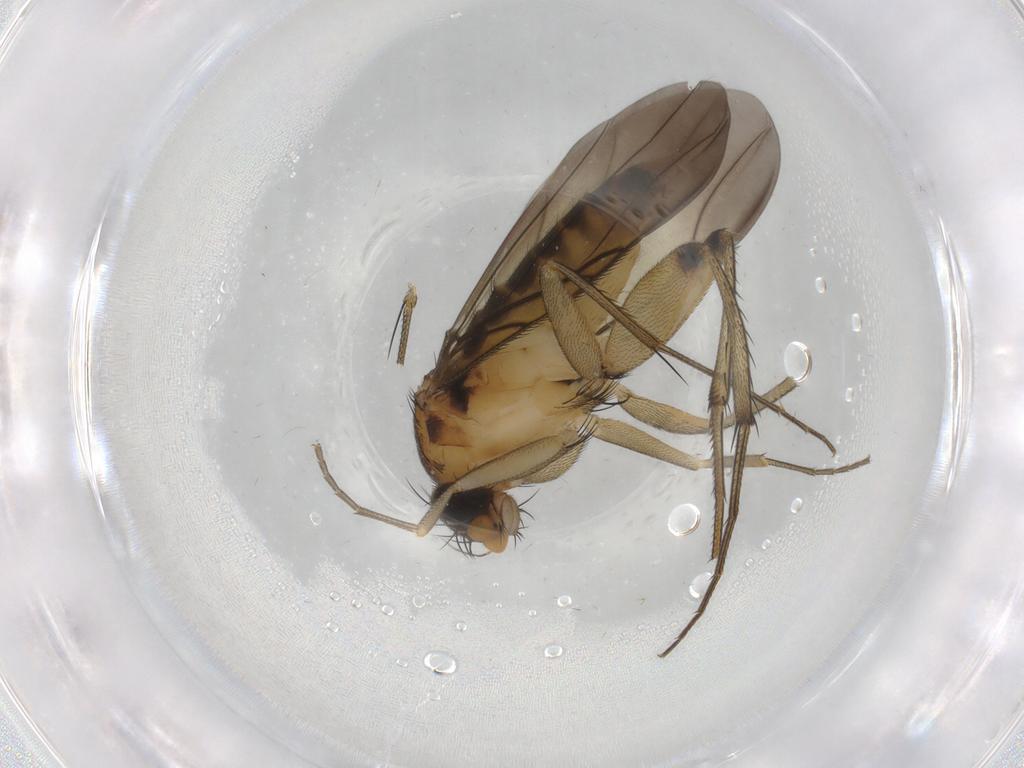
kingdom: Animalia
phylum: Arthropoda
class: Insecta
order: Diptera
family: Phoridae
